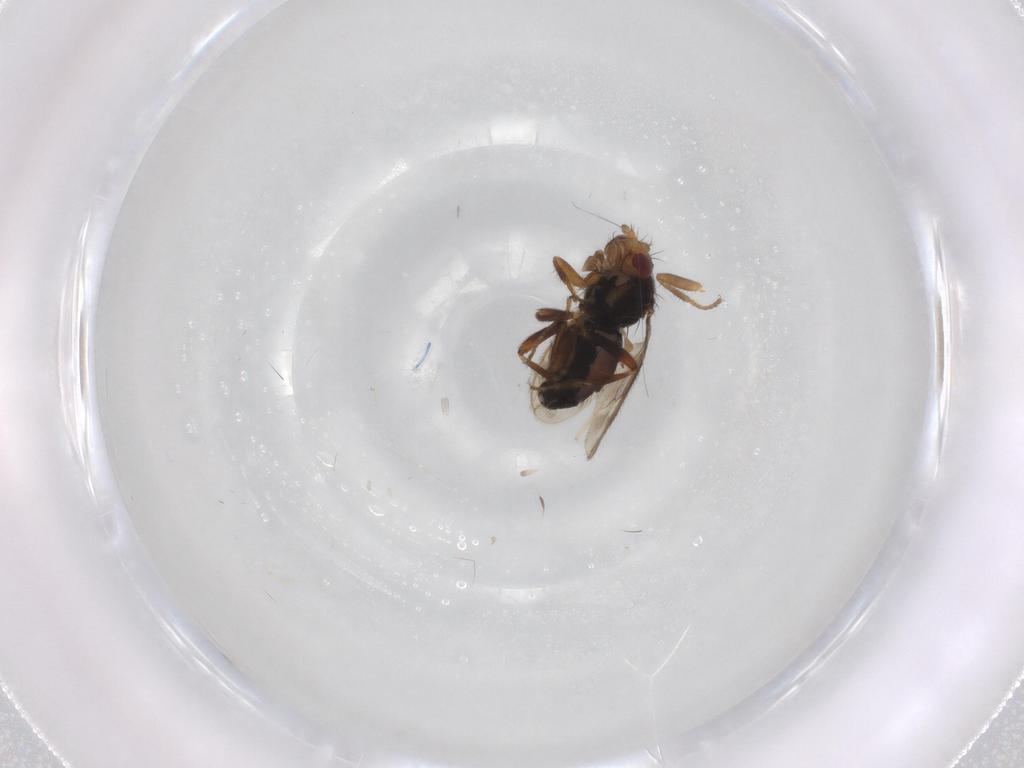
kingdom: Animalia
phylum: Arthropoda
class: Insecta
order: Diptera
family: Sphaeroceridae
